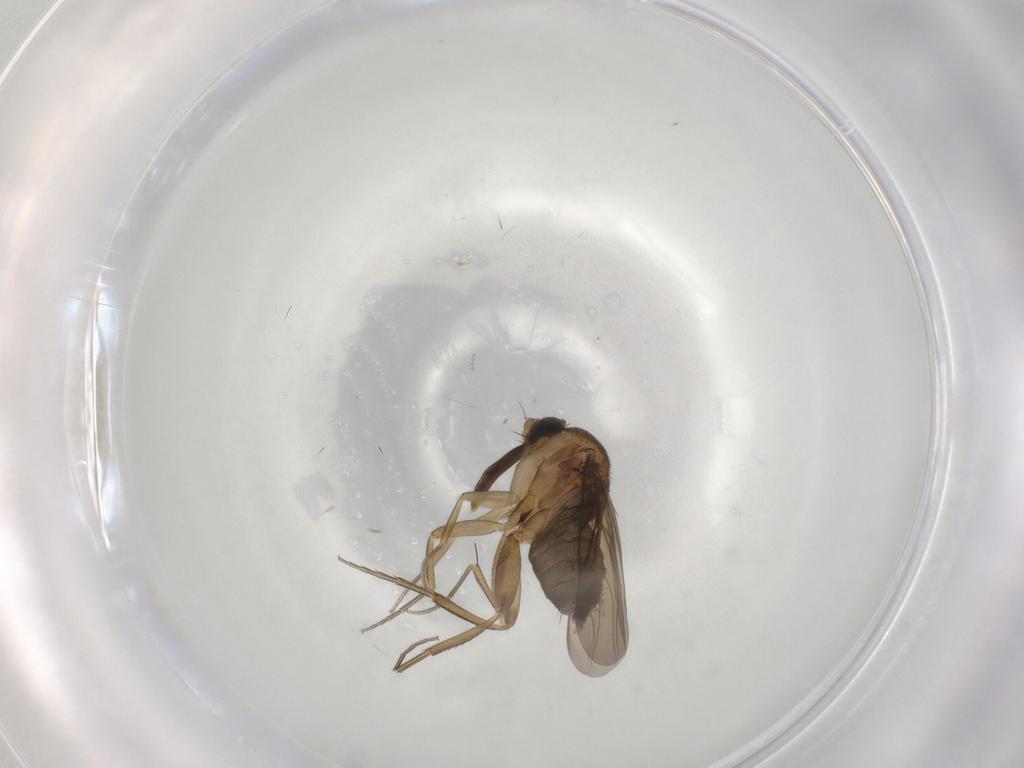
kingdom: Animalia
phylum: Arthropoda
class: Insecta
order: Diptera
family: Phoridae
